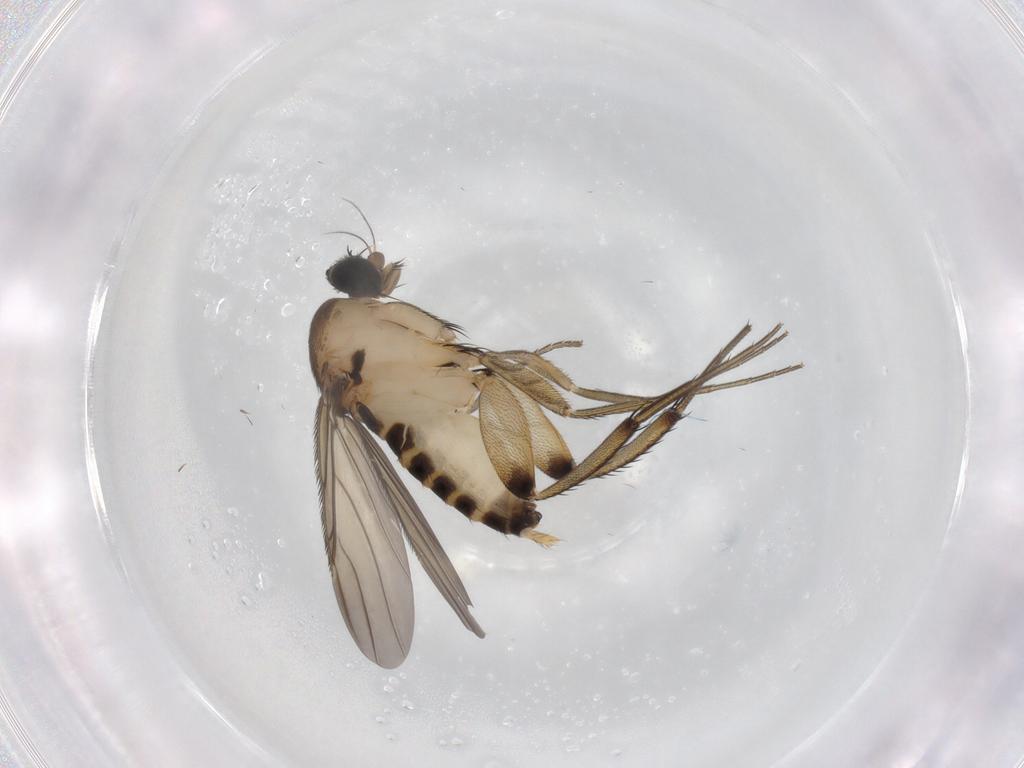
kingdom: Animalia
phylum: Arthropoda
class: Insecta
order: Diptera
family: Phoridae
